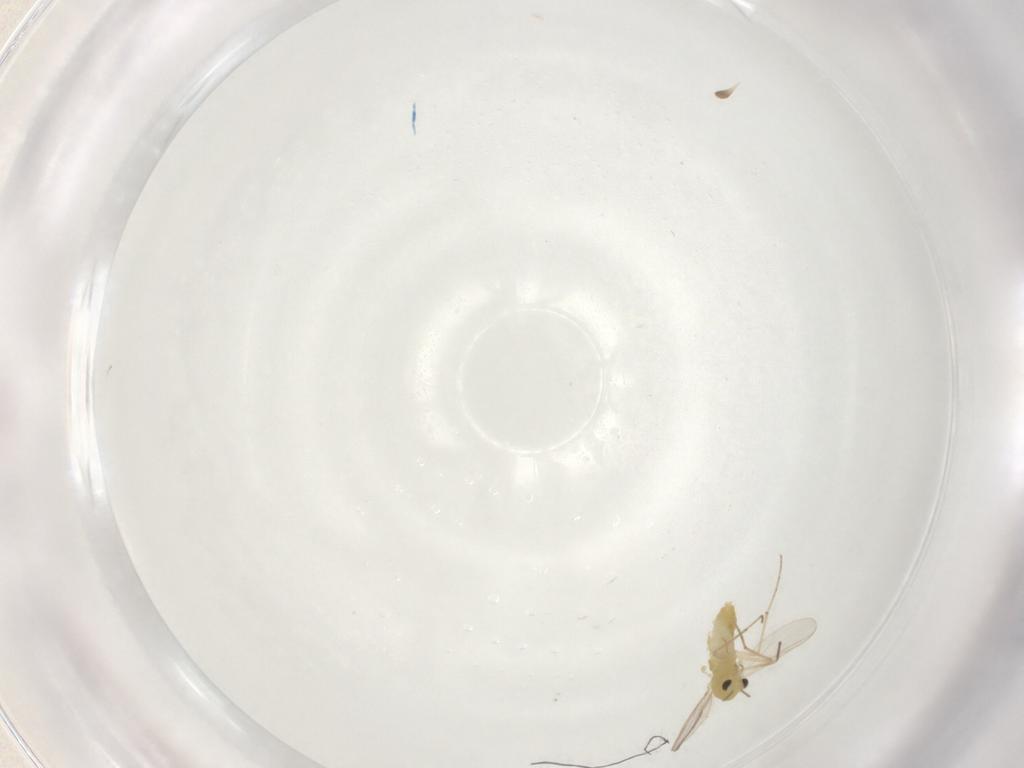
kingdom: Animalia
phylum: Arthropoda
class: Insecta
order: Diptera
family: Chironomidae
